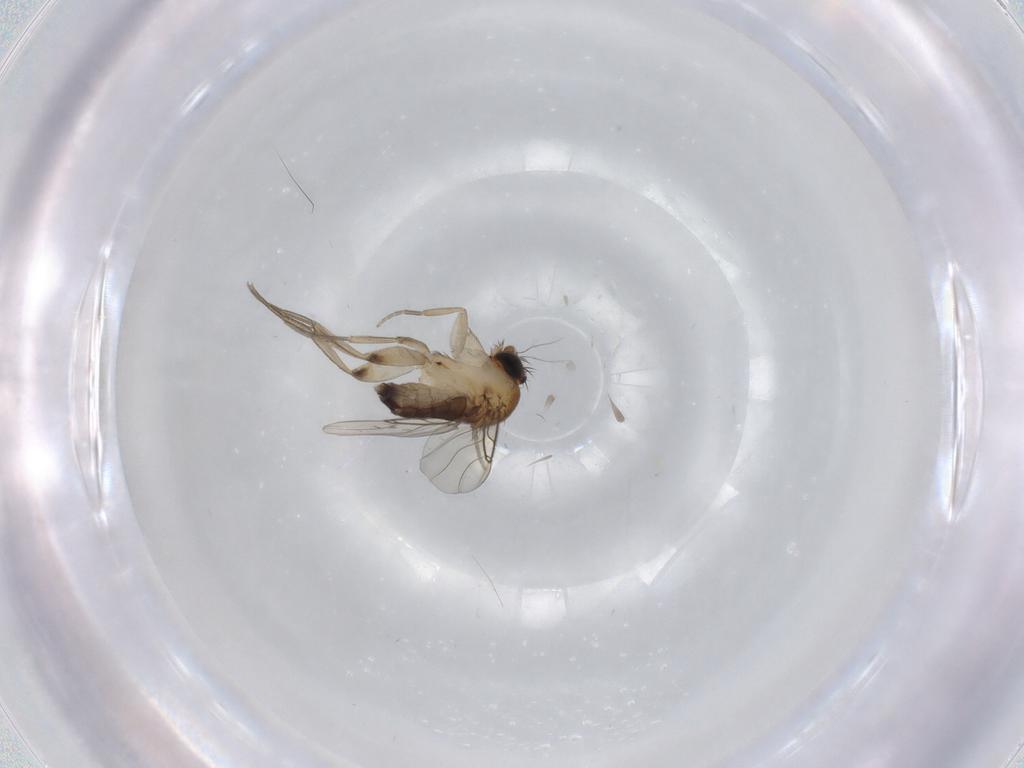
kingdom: Animalia
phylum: Arthropoda
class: Insecta
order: Diptera
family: Phoridae
